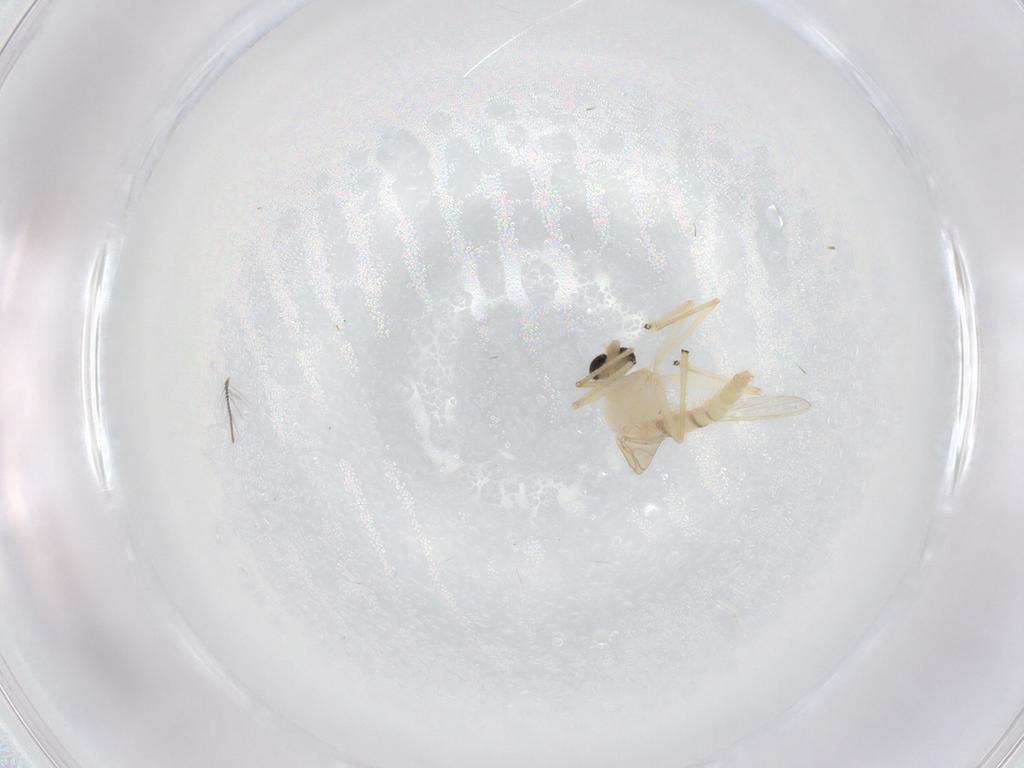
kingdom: Animalia
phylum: Arthropoda
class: Insecta
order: Diptera
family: Chironomidae
